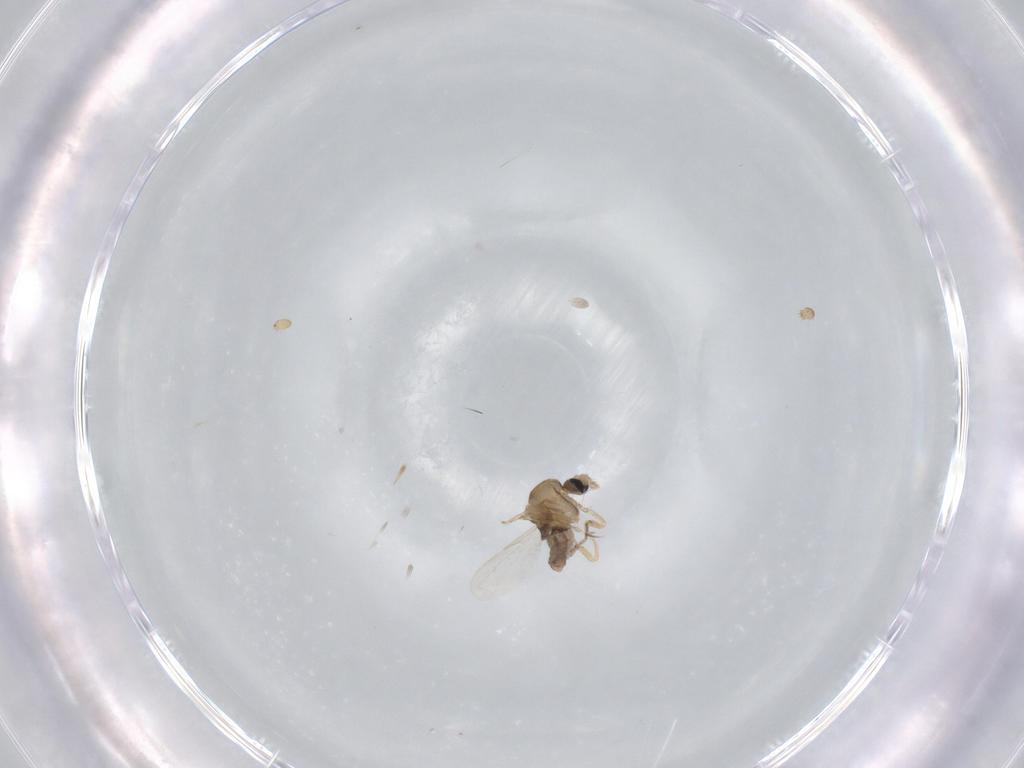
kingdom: Animalia
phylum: Arthropoda
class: Insecta
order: Diptera
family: Ceratopogonidae
